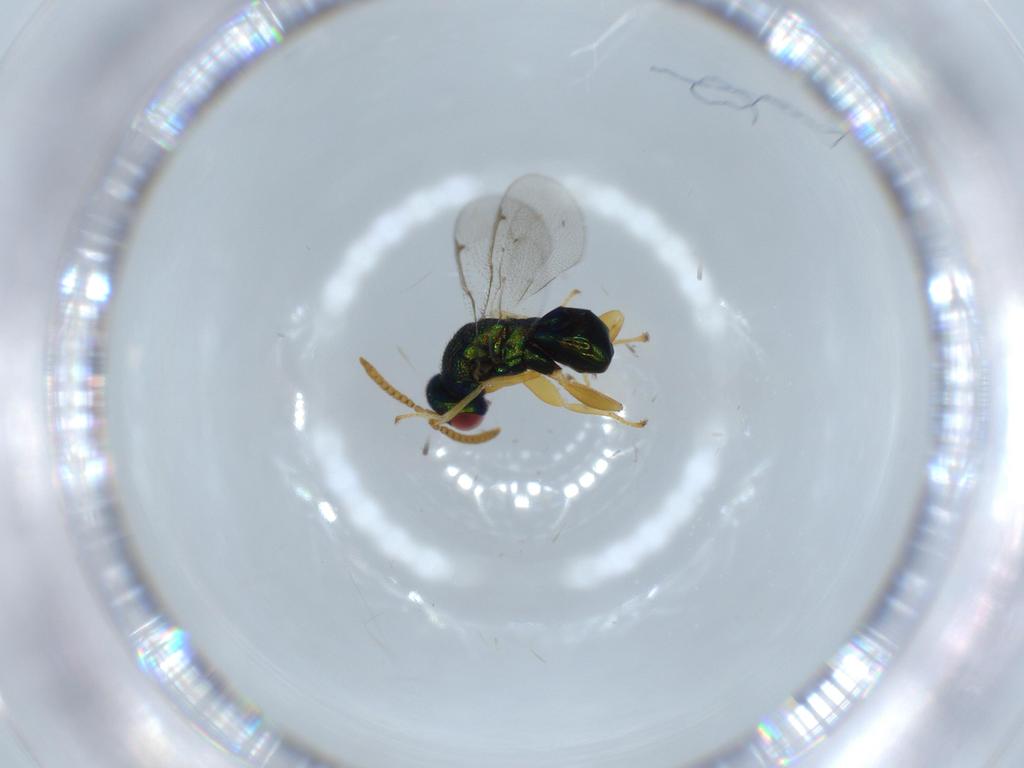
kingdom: Animalia
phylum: Arthropoda
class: Insecta
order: Hymenoptera
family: Torymidae
